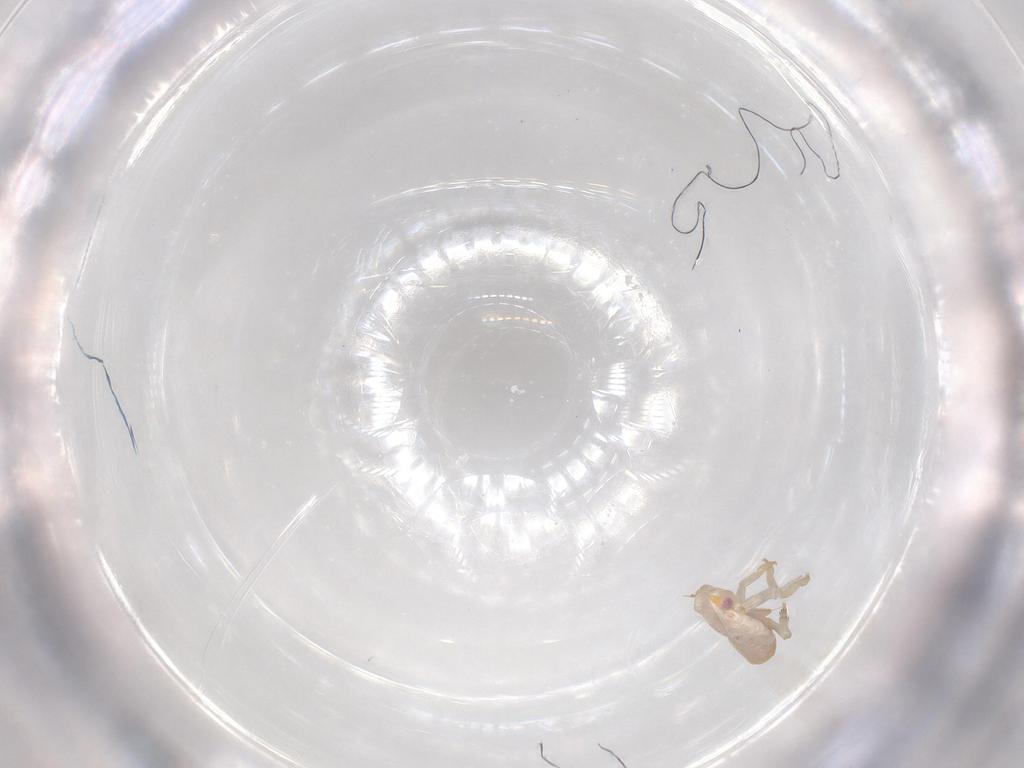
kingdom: Animalia
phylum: Arthropoda
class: Insecta
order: Hemiptera
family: Flatidae
